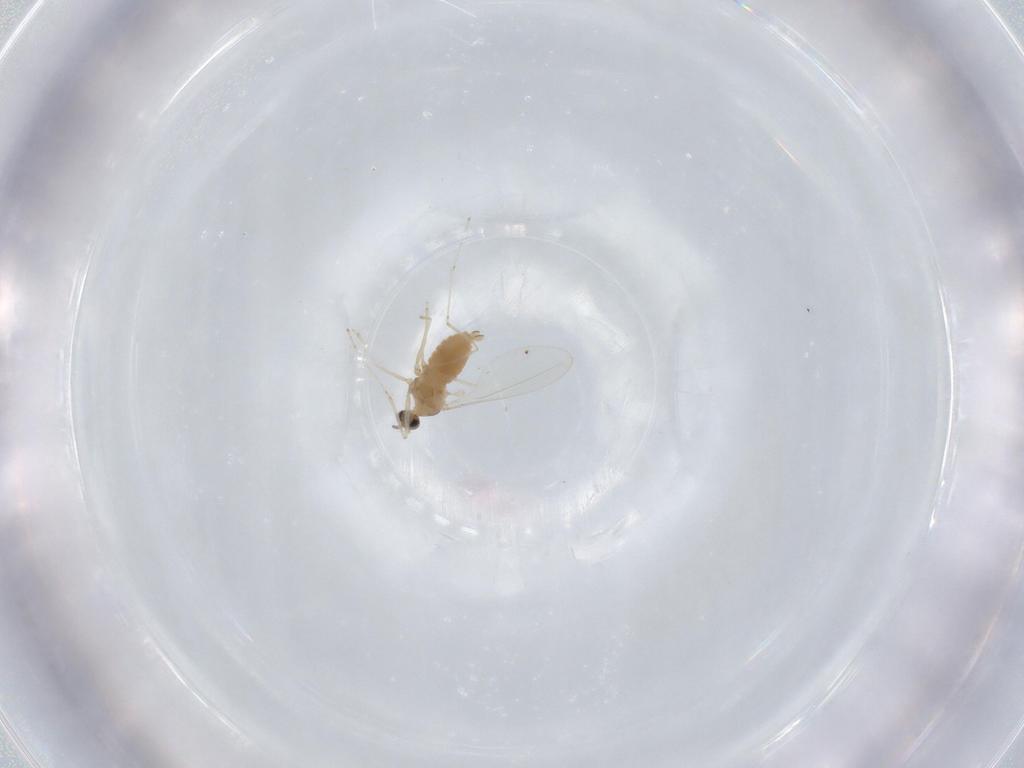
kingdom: Animalia
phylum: Arthropoda
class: Insecta
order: Diptera
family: Cecidomyiidae
